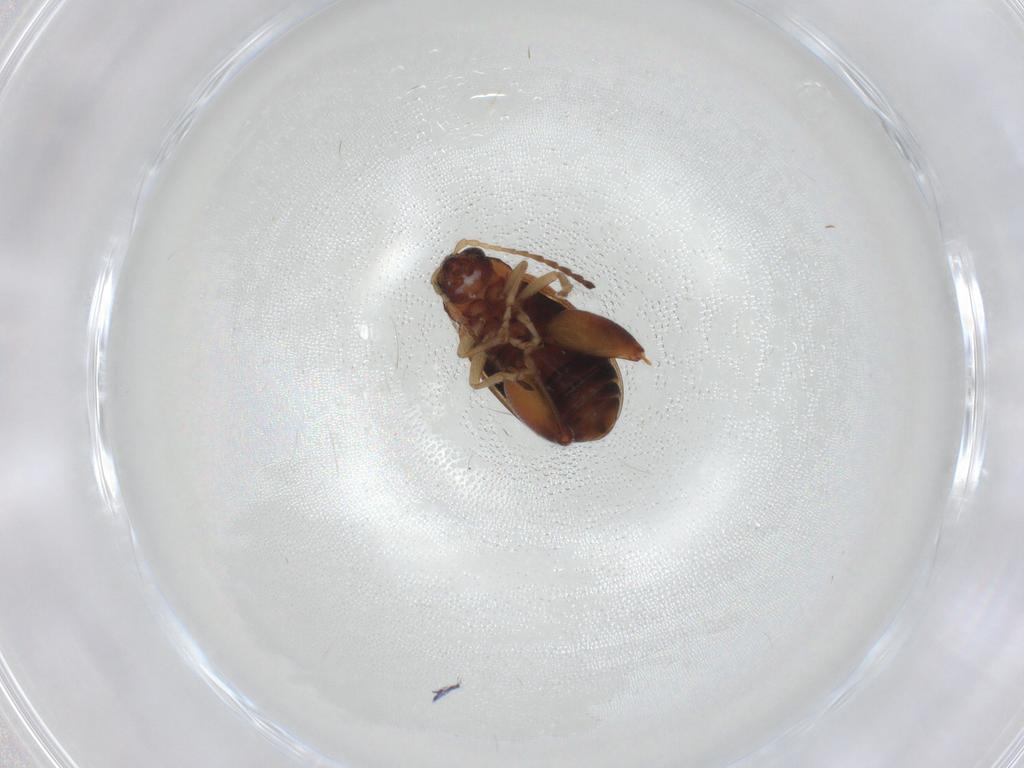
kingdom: Animalia
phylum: Arthropoda
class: Insecta
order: Coleoptera
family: Chrysomelidae
